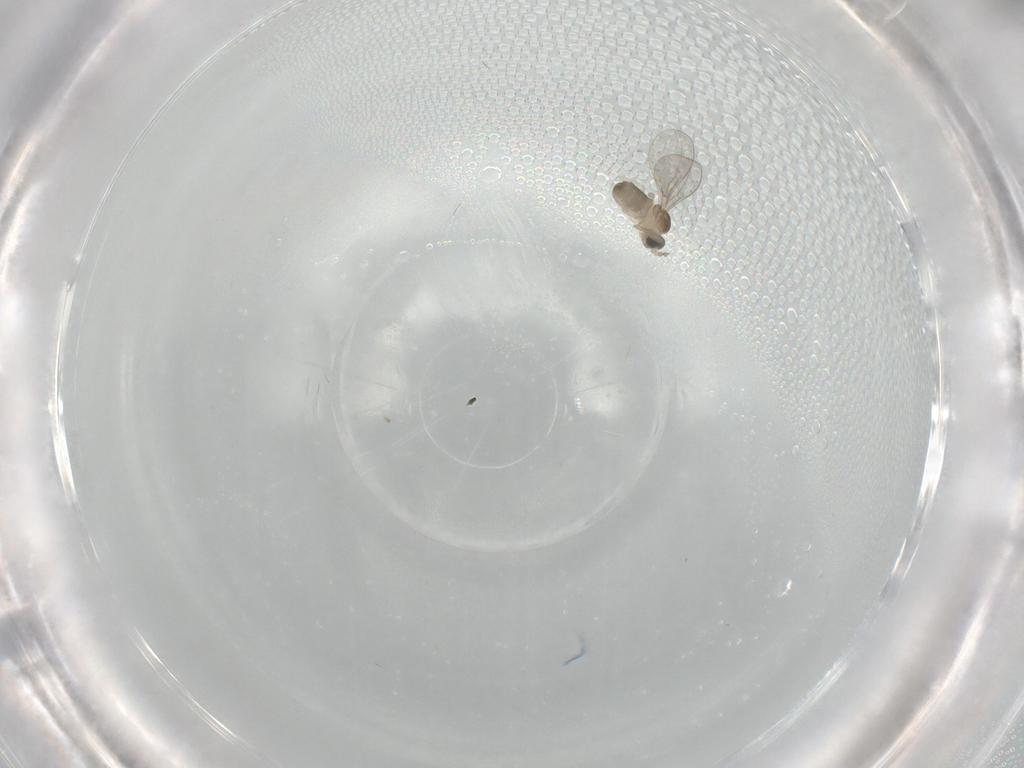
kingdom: Animalia
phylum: Arthropoda
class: Insecta
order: Diptera
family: Cecidomyiidae
